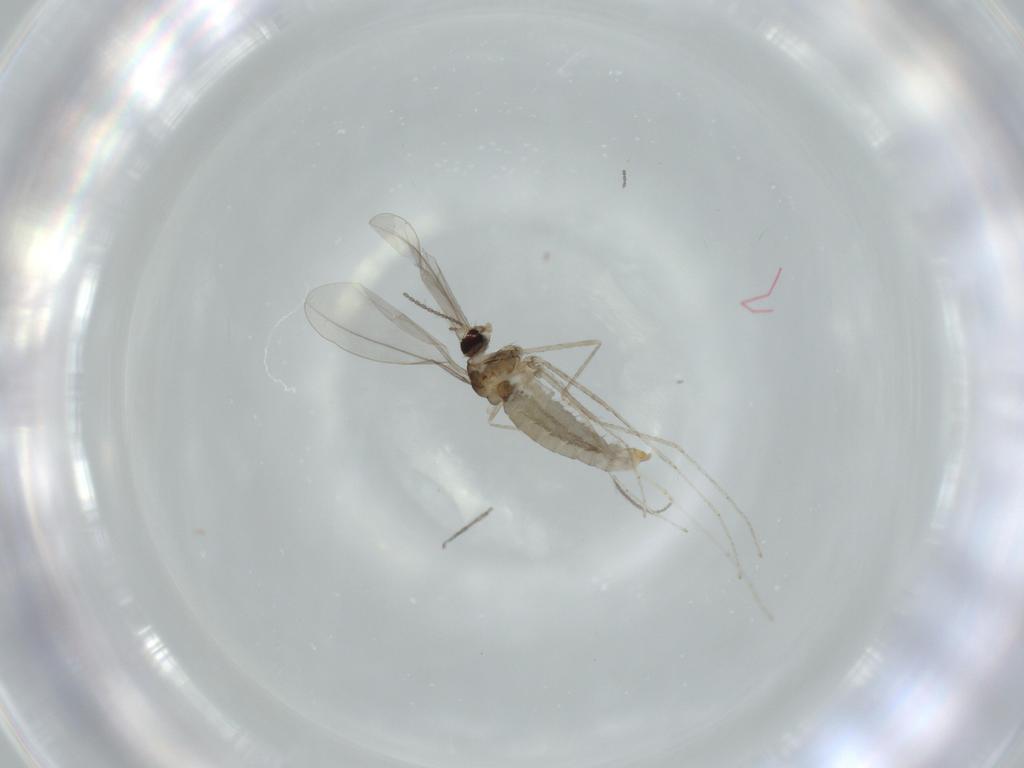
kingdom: Animalia
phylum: Arthropoda
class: Insecta
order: Diptera
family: Cecidomyiidae
